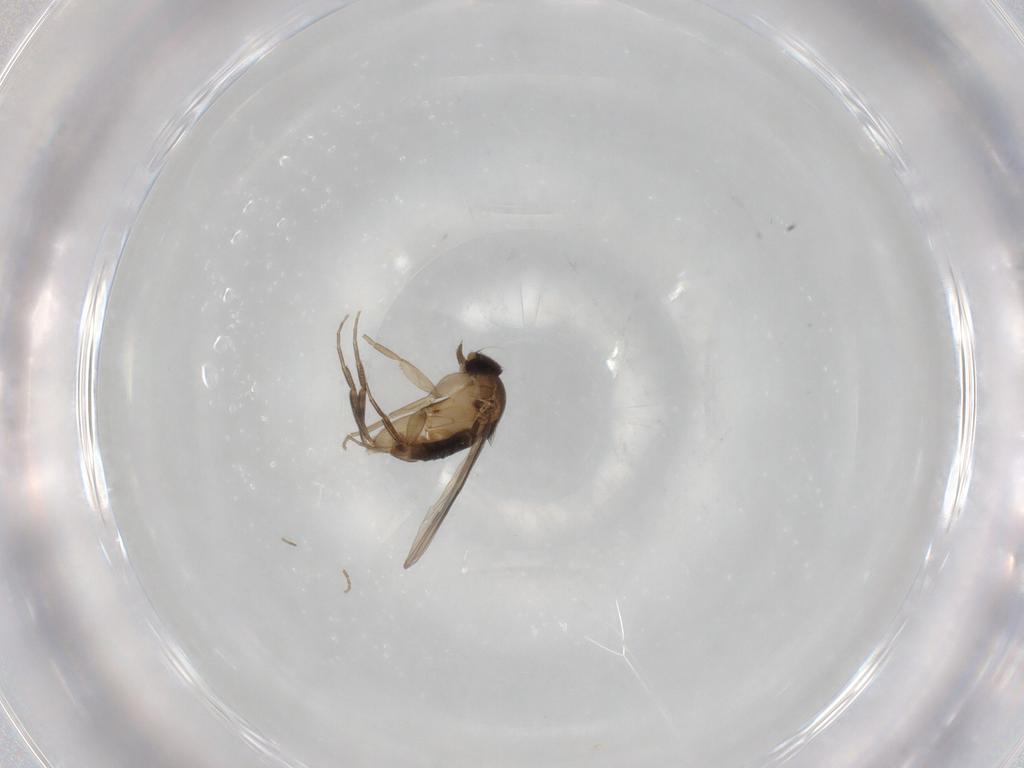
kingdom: Animalia
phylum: Arthropoda
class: Insecta
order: Diptera
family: Phoridae
